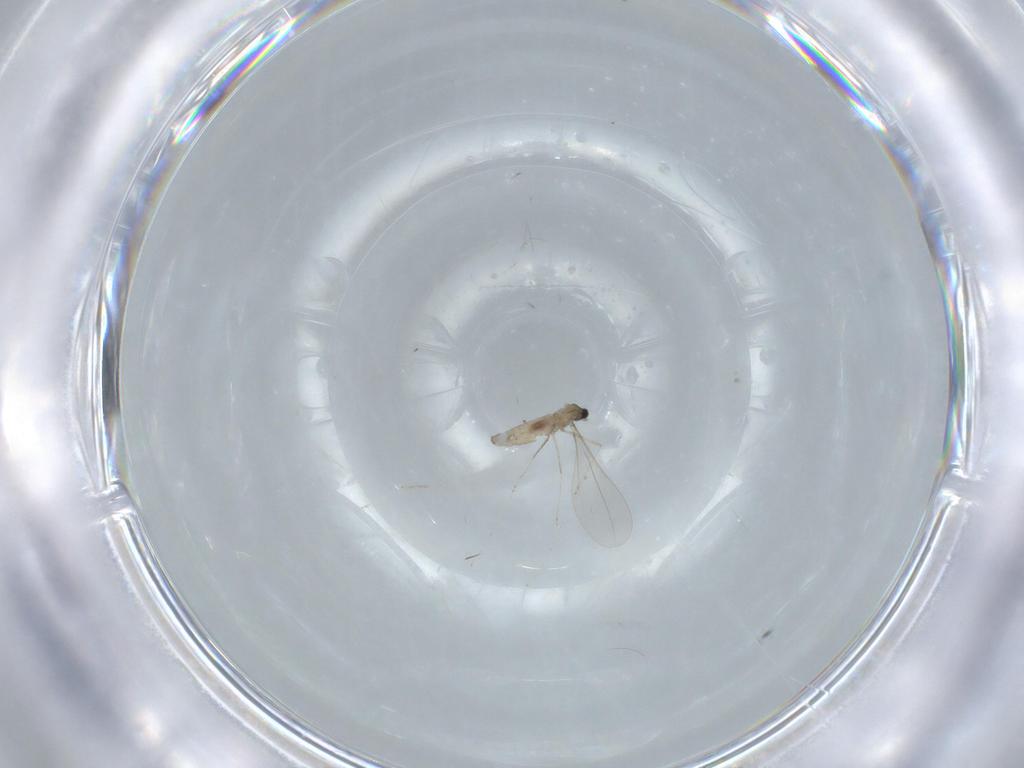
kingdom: Animalia
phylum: Arthropoda
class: Insecta
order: Diptera
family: Cecidomyiidae
